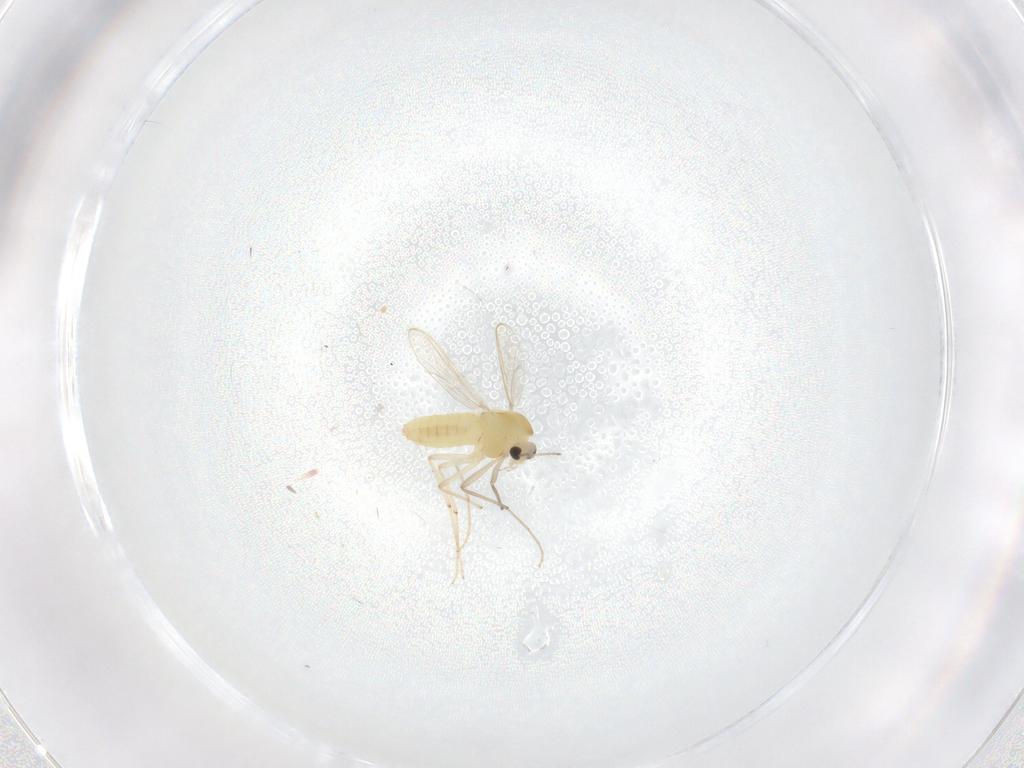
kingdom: Animalia
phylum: Arthropoda
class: Insecta
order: Diptera
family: Chironomidae
